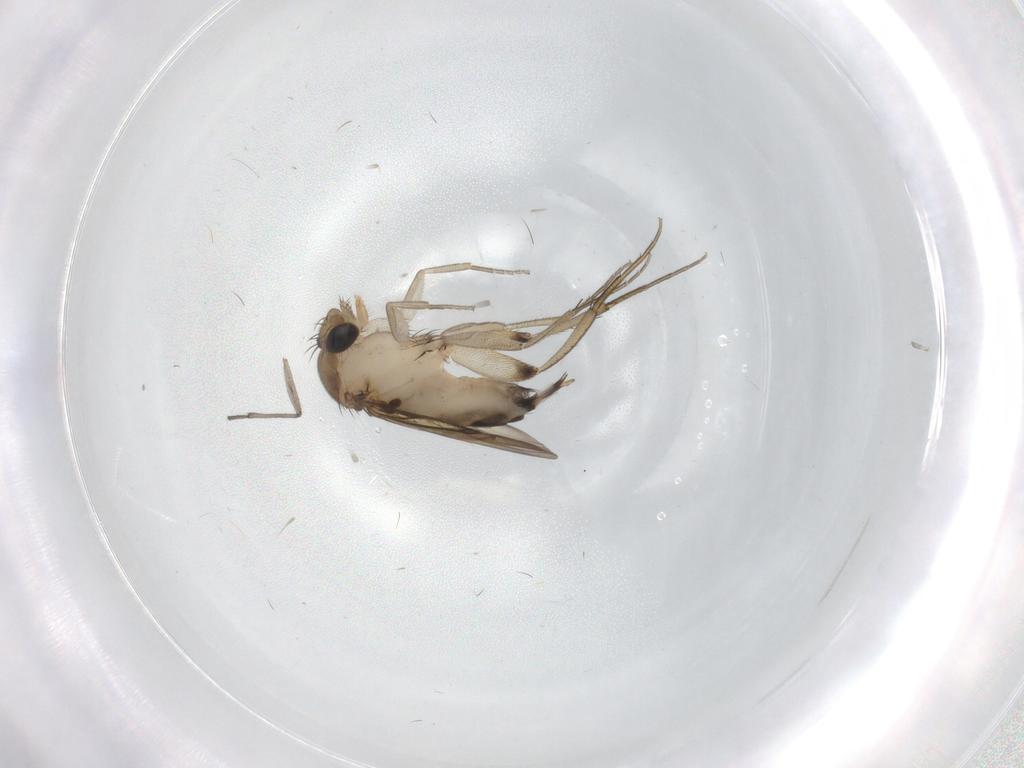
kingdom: Animalia
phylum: Arthropoda
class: Insecta
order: Diptera
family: Phoridae
